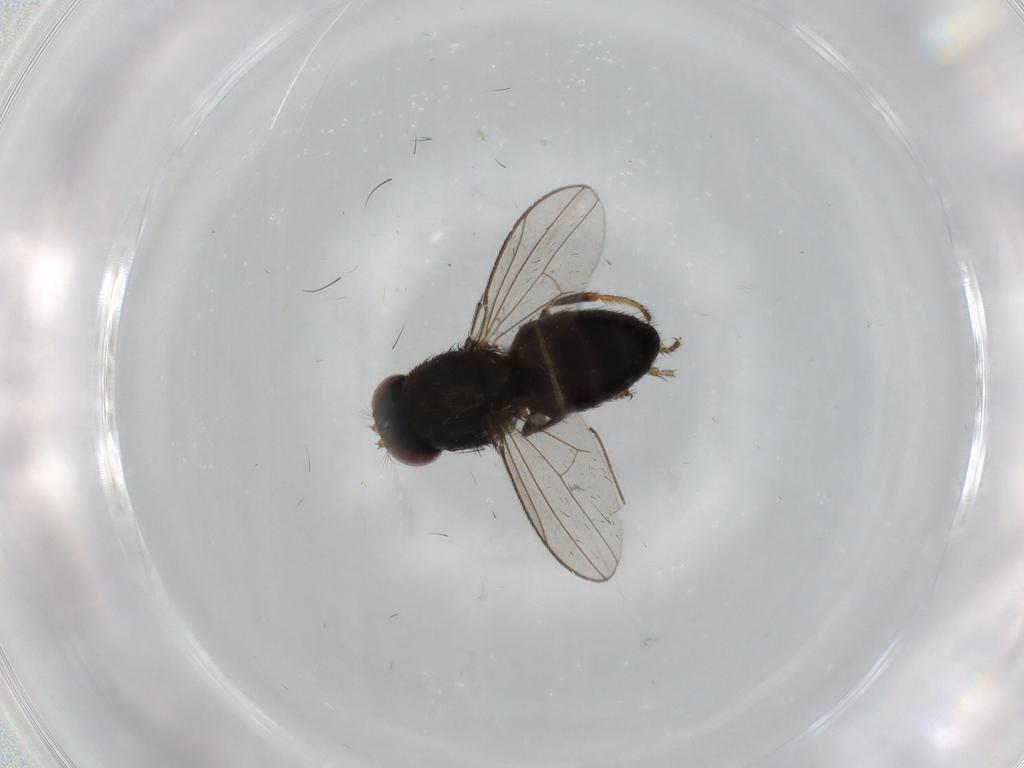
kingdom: Animalia
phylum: Arthropoda
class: Insecta
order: Diptera
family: Ephydridae
